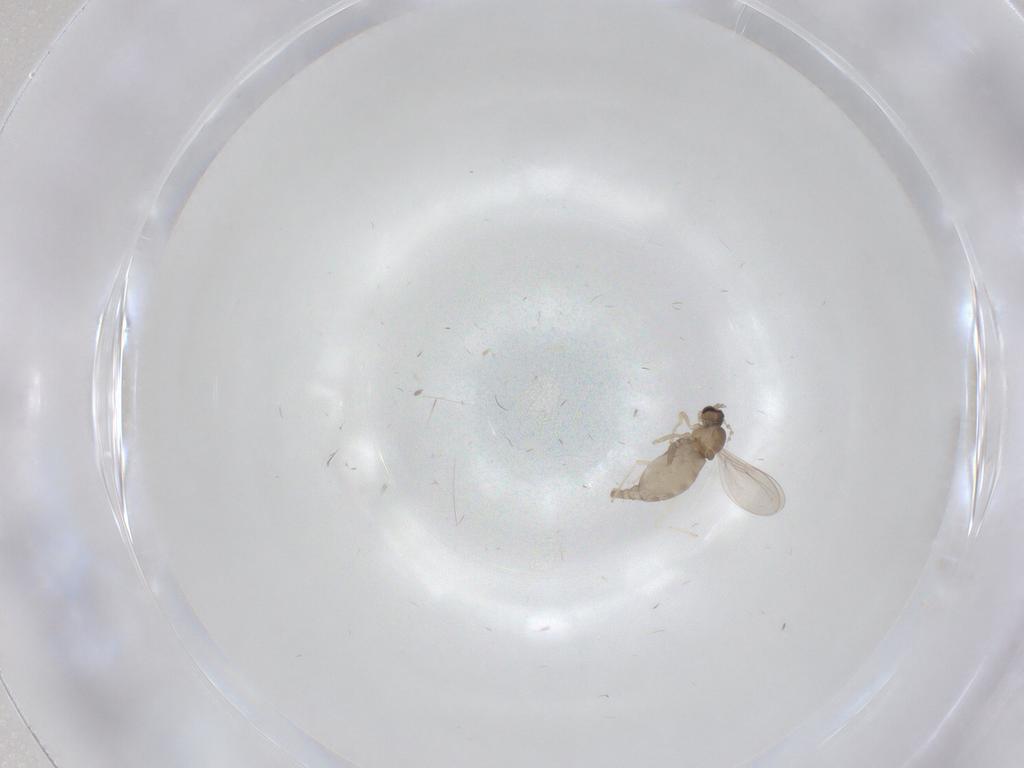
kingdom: Animalia
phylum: Arthropoda
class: Insecta
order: Diptera
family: Cecidomyiidae
